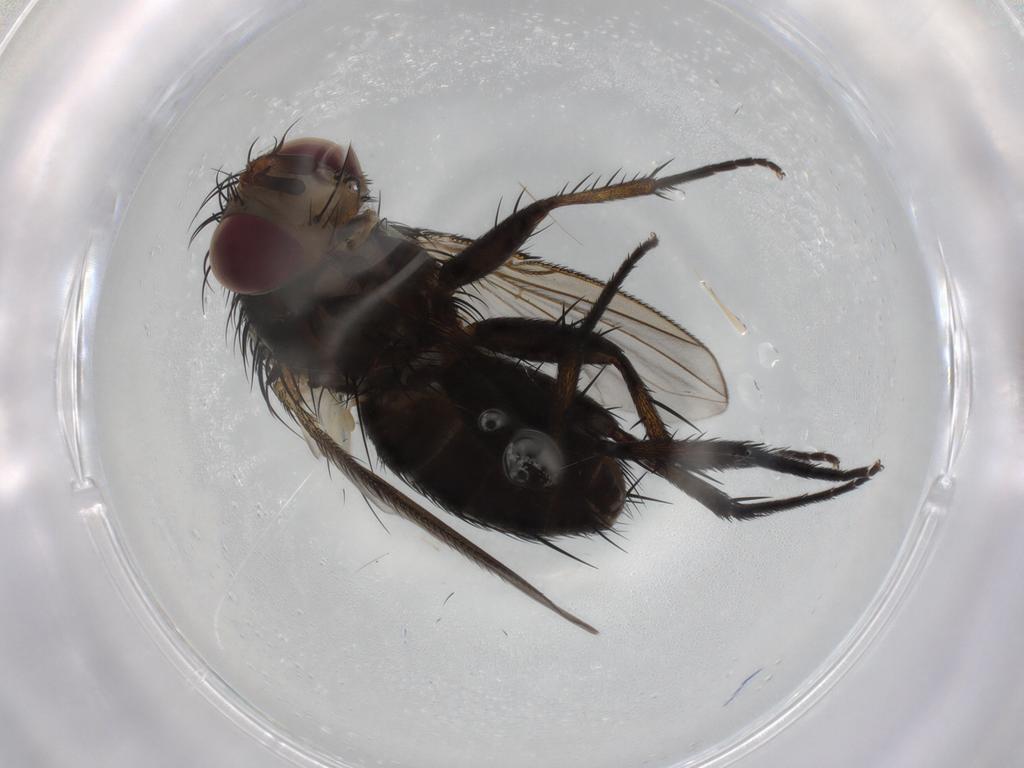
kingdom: Animalia
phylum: Arthropoda
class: Insecta
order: Diptera
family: Tachinidae
